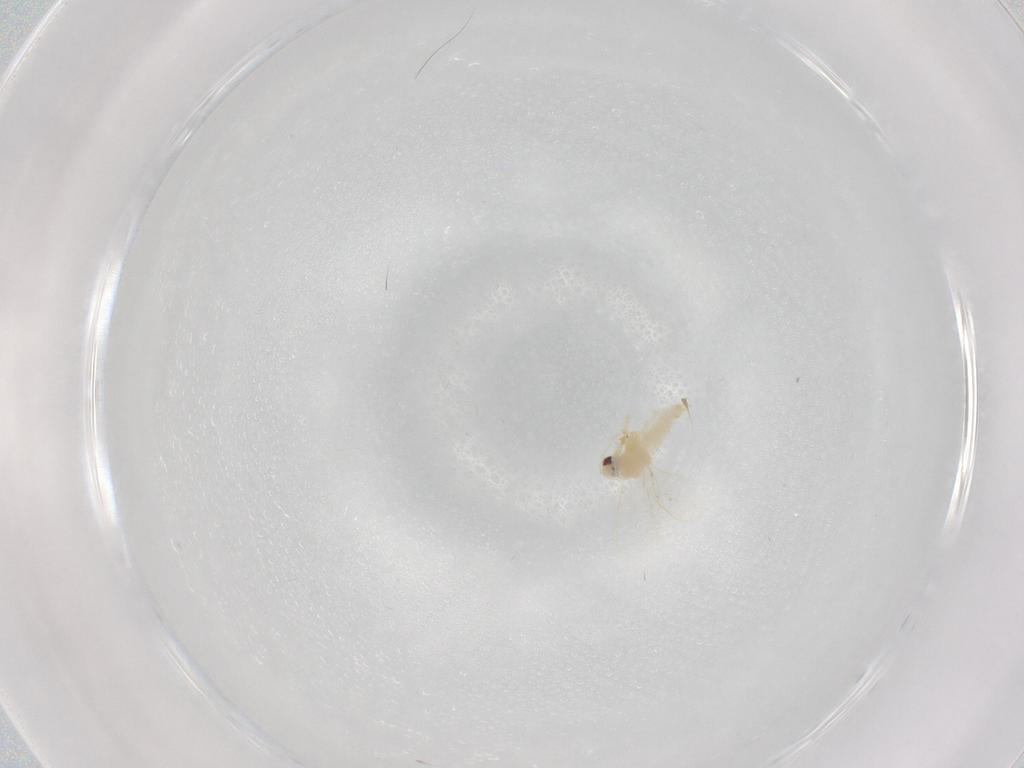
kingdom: Animalia
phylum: Arthropoda
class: Insecta
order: Hemiptera
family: Aleyrodidae
